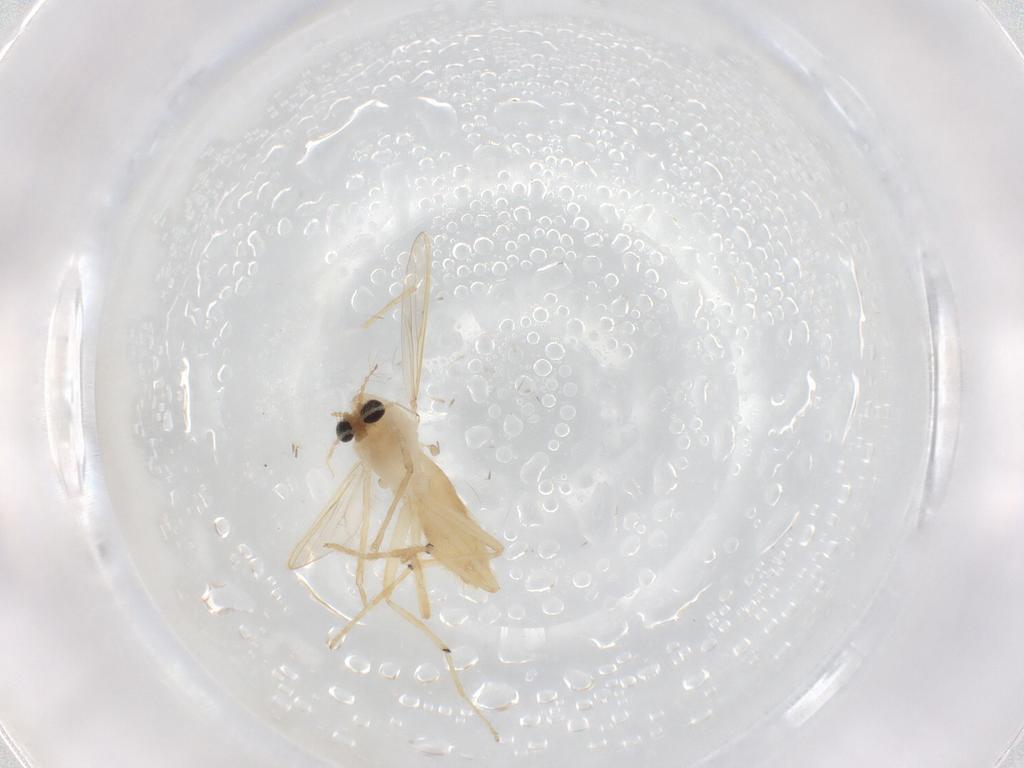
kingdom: Animalia
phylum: Arthropoda
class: Insecta
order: Diptera
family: Chironomidae
